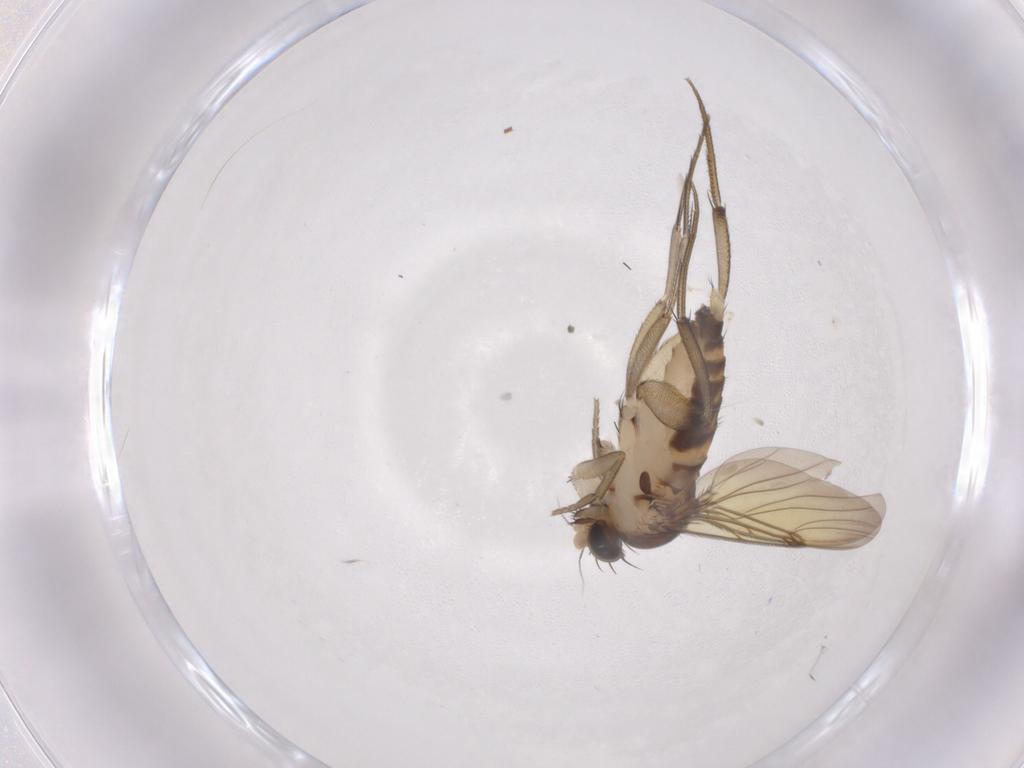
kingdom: Animalia
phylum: Arthropoda
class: Insecta
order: Diptera
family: Phoridae
